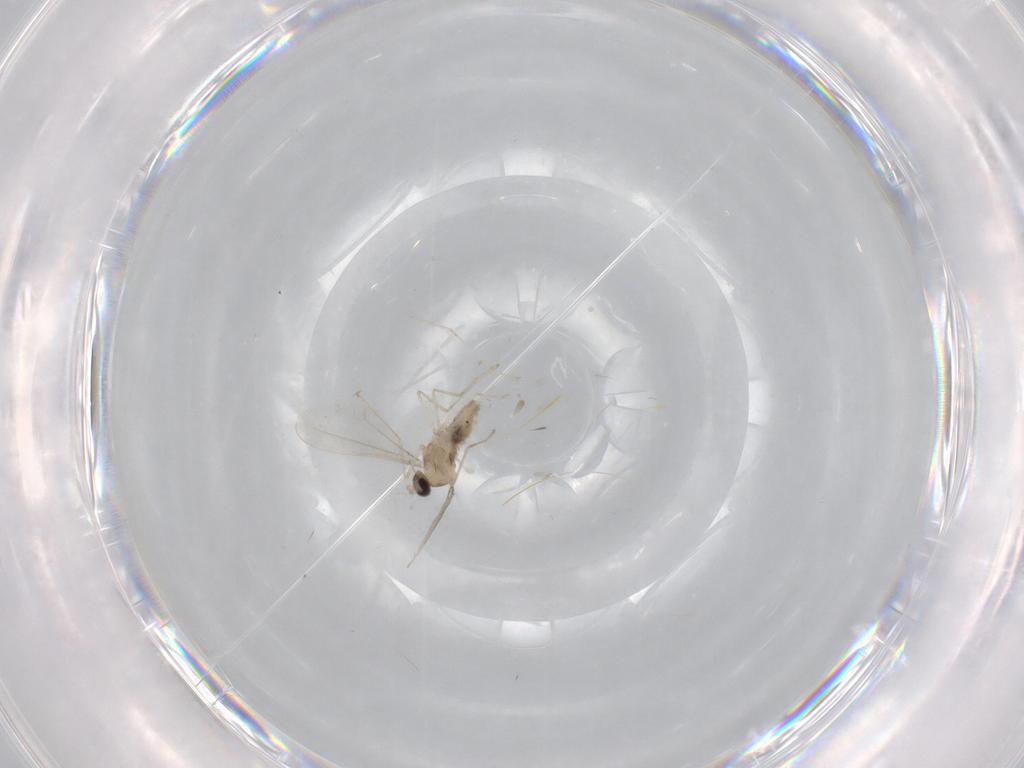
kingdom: Animalia
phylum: Arthropoda
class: Insecta
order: Diptera
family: Cecidomyiidae
